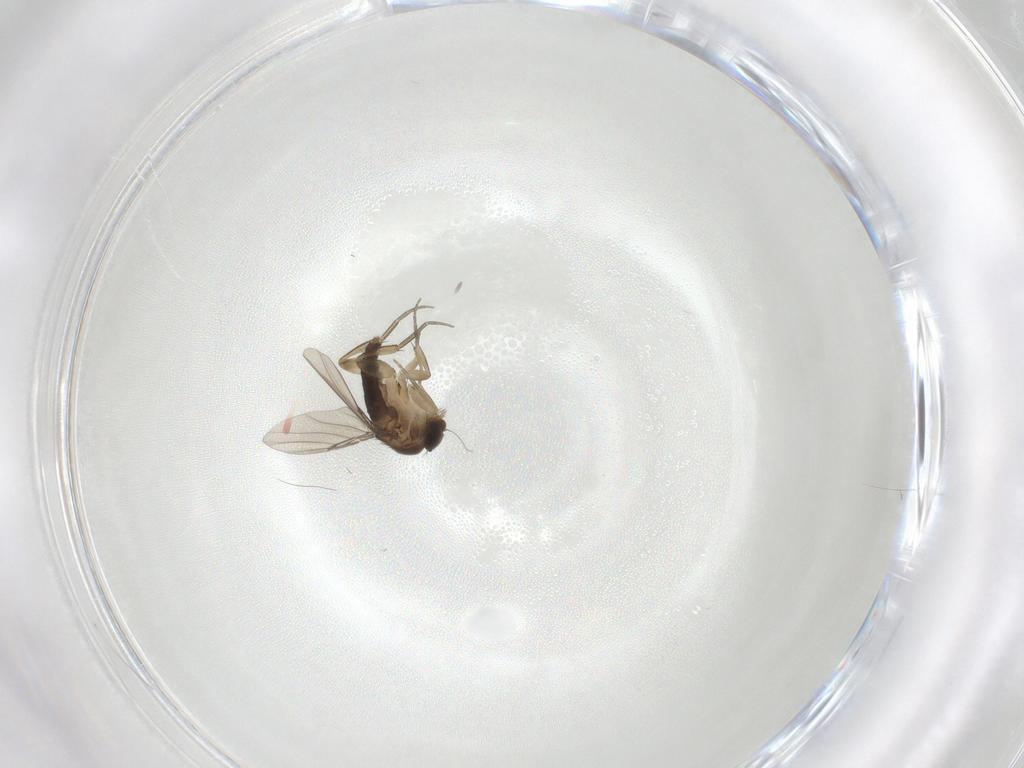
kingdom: Animalia
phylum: Arthropoda
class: Insecta
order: Diptera
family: Phoridae
